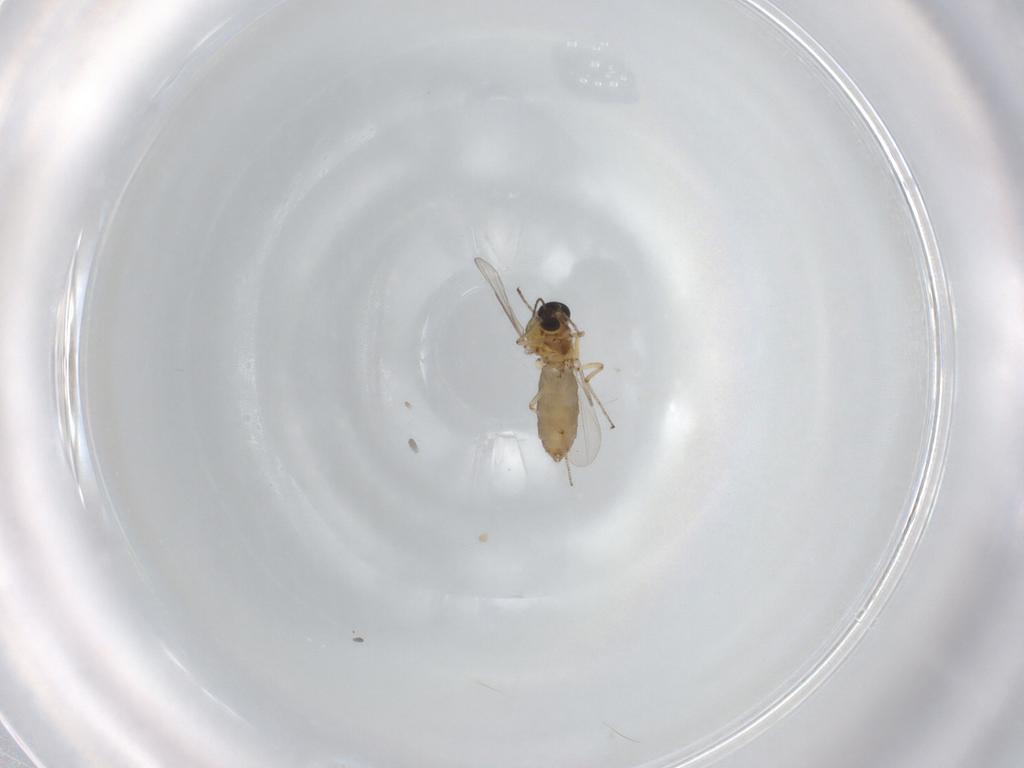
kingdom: Animalia
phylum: Arthropoda
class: Insecta
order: Diptera
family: Ceratopogonidae
